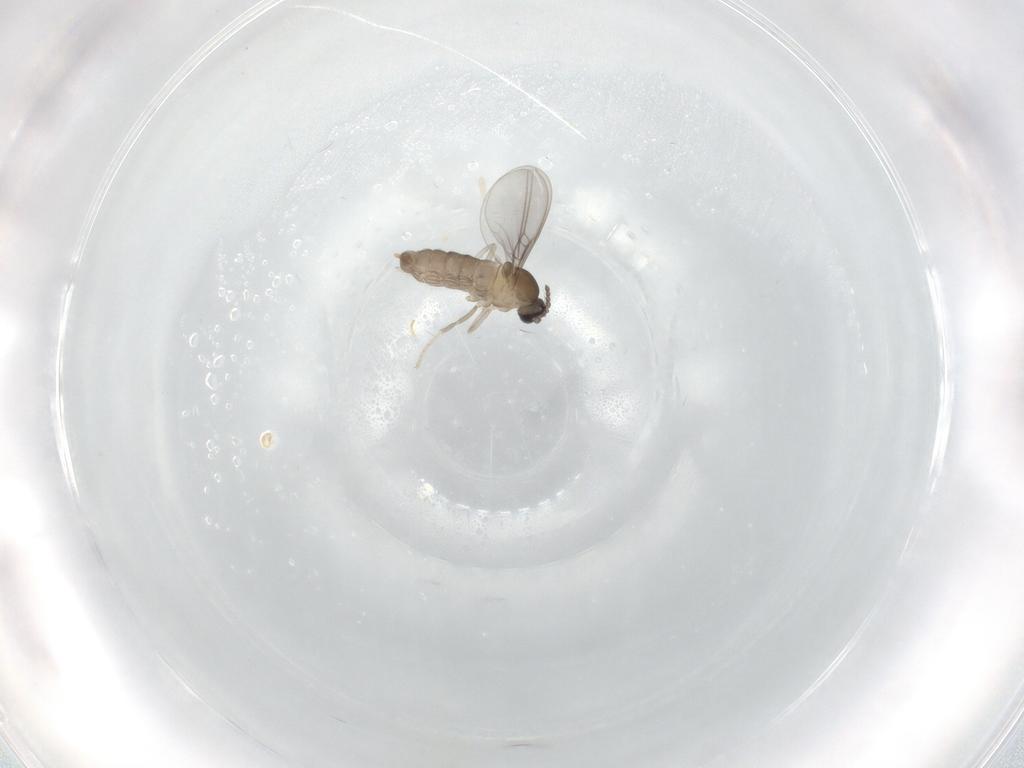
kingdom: Animalia
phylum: Arthropoda
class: Insecta
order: Diptera
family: Cecidomyiidae
